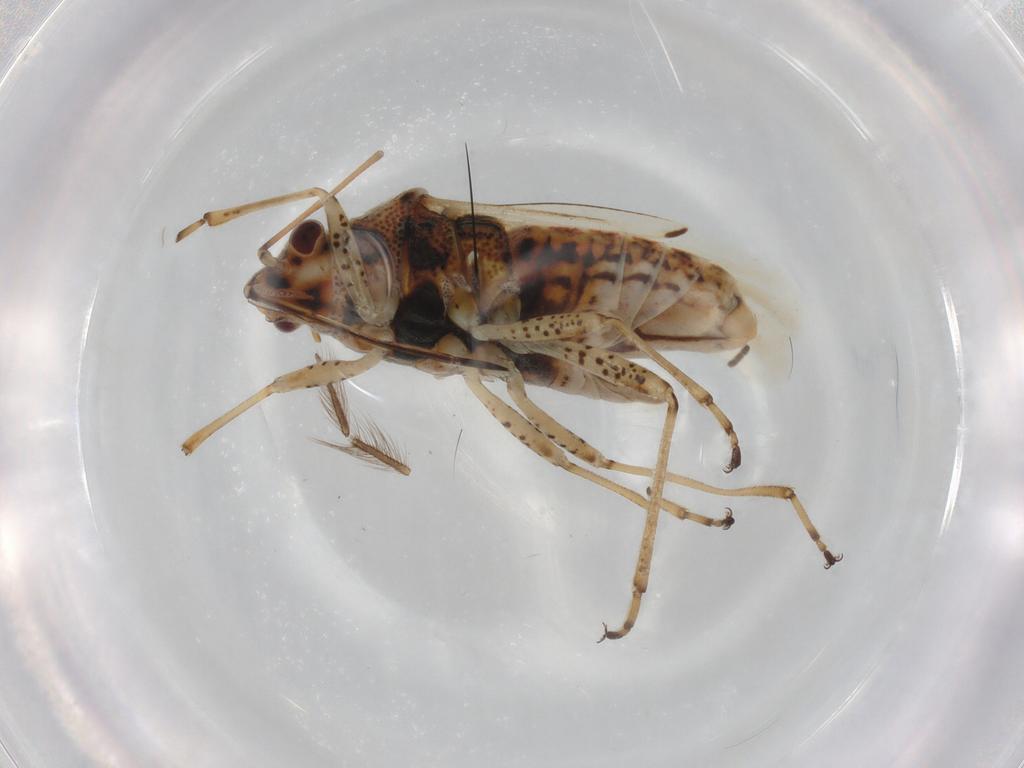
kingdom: Animalia
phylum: Arthropoda
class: Insecta
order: Hemiptera
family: Lygaeidae
